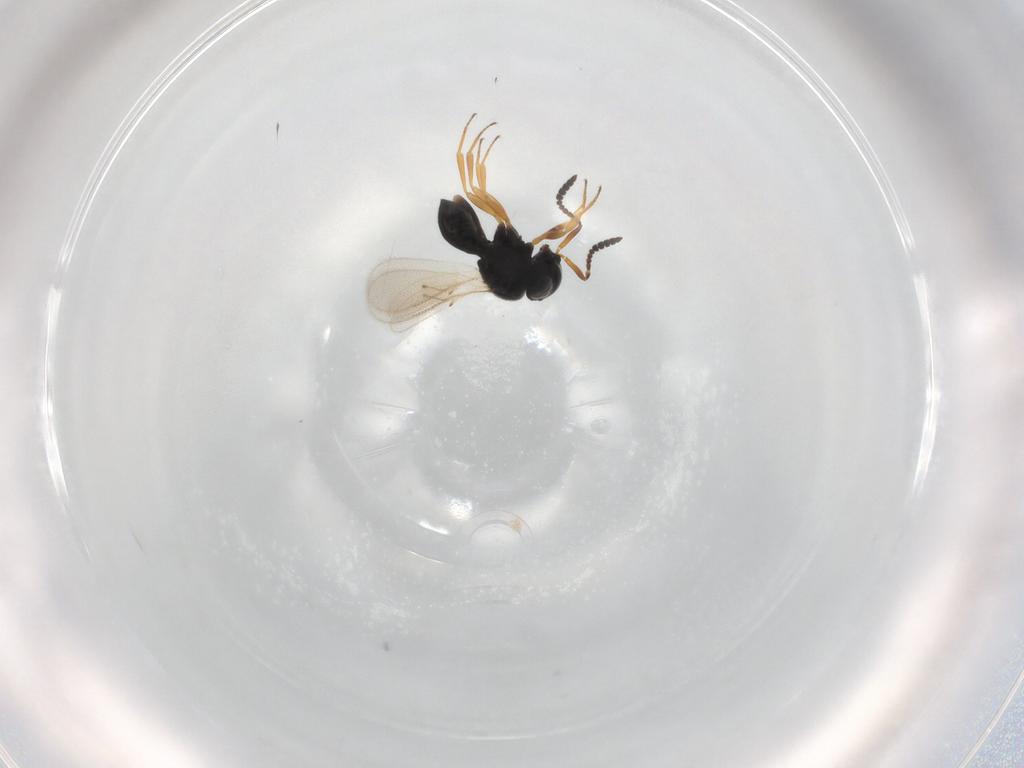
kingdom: Animalia
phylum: Arthropoda
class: Insecta
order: Hymenoptera
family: Scelionidae
